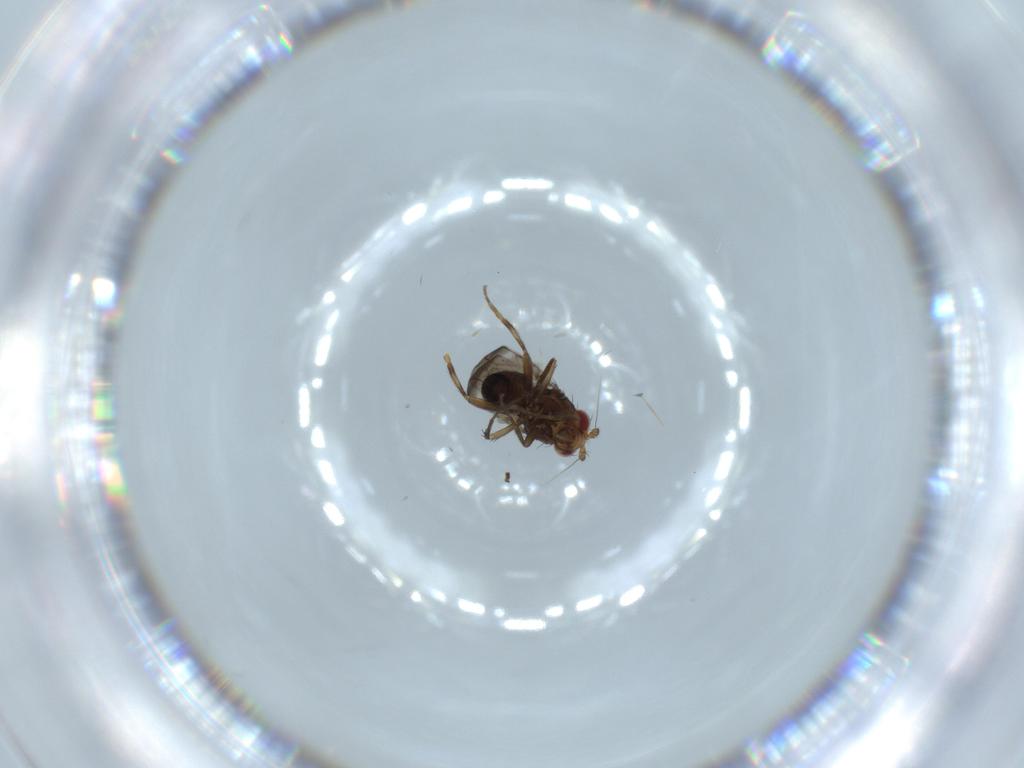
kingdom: Animalia
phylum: Arthropoda
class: Insecta
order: Diptera
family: Sphaeroceridae
